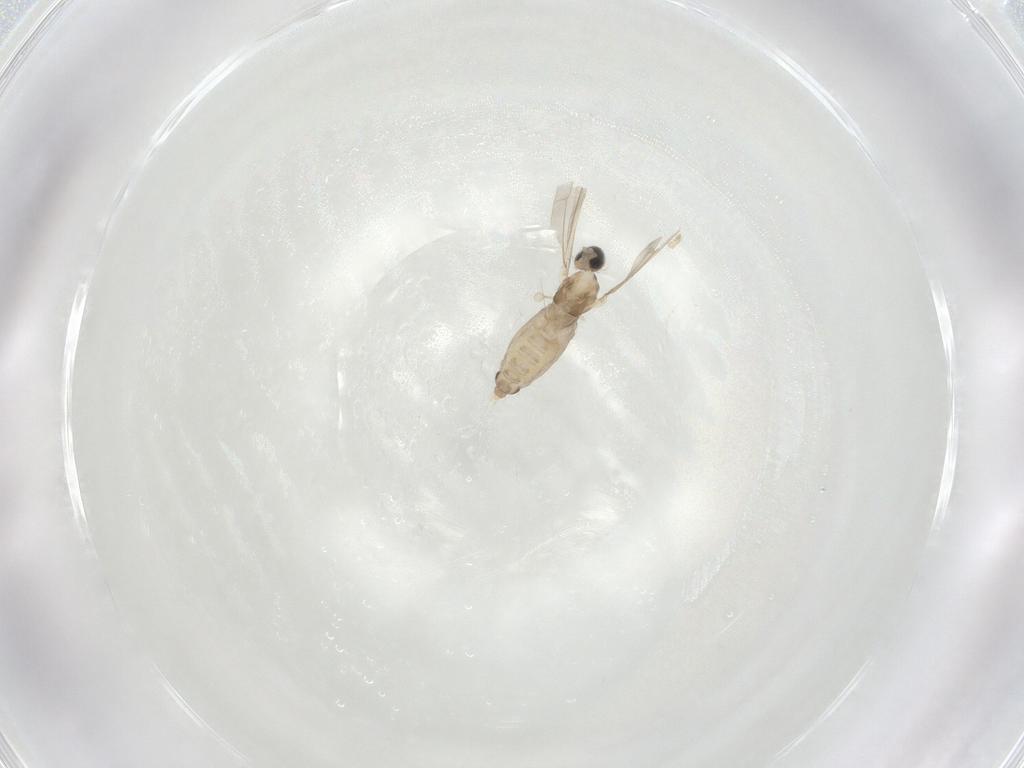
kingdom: Animalia
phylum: Arthropoda
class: Insecta
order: Diptera
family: Cecidomyiidae
